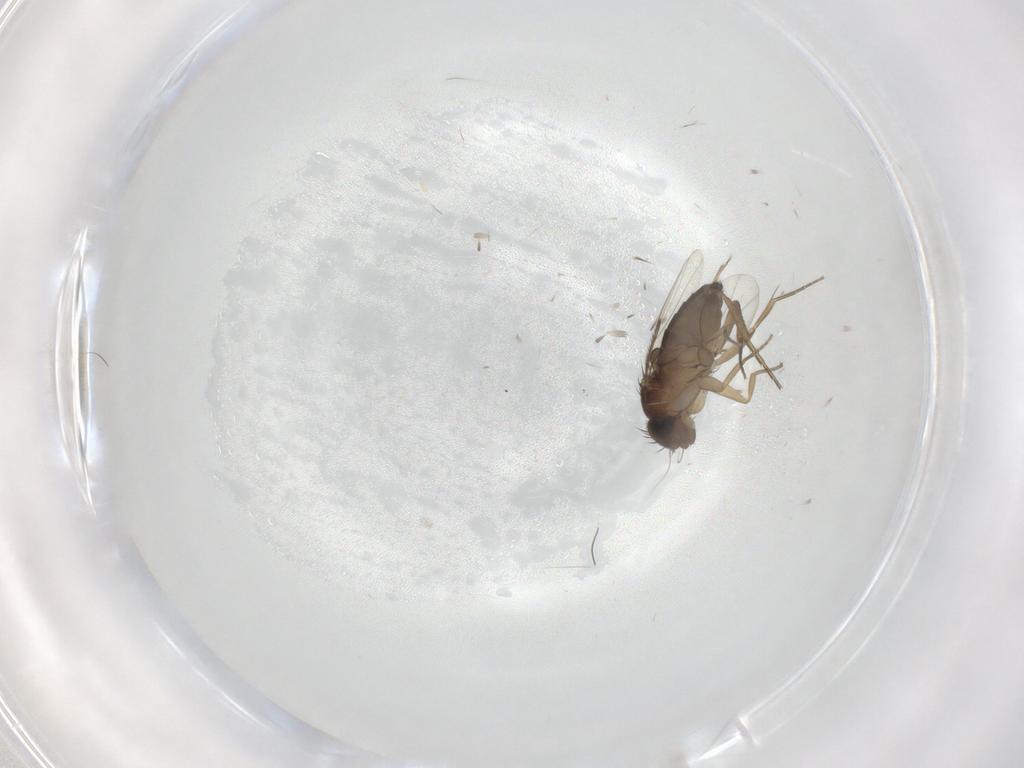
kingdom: Animalia
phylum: Arthropoda
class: Insecta
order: Diptera
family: Phoridae
